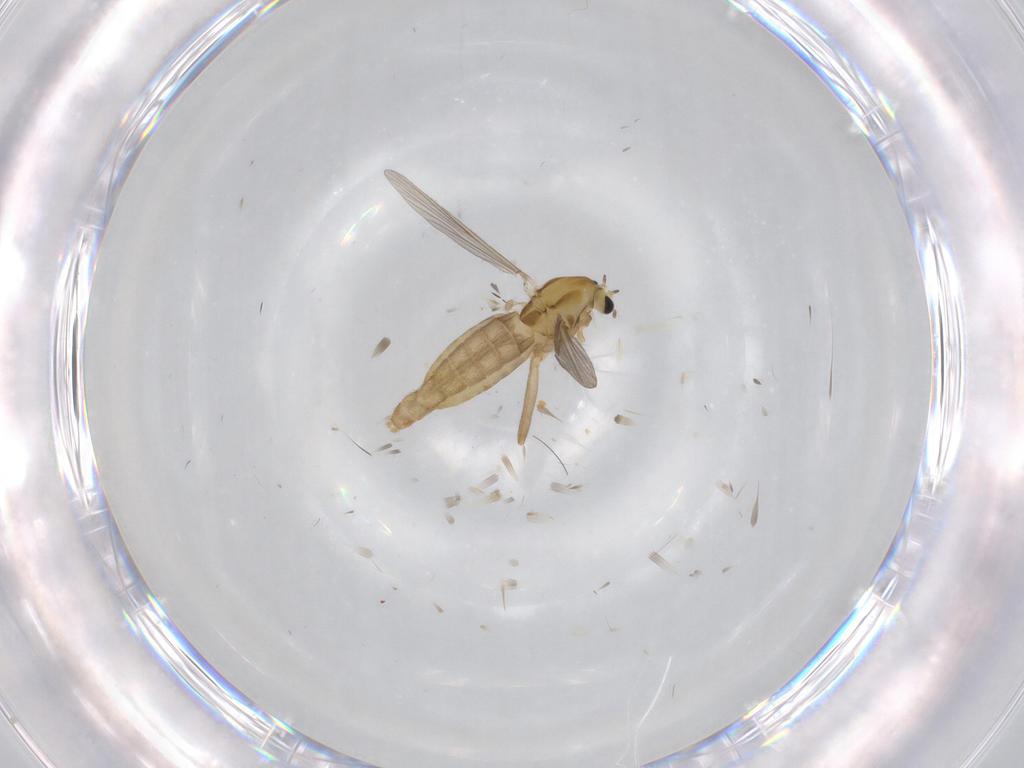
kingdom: Animalia
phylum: Arthropoda
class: Insecta
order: Diptera
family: Chironomidae
